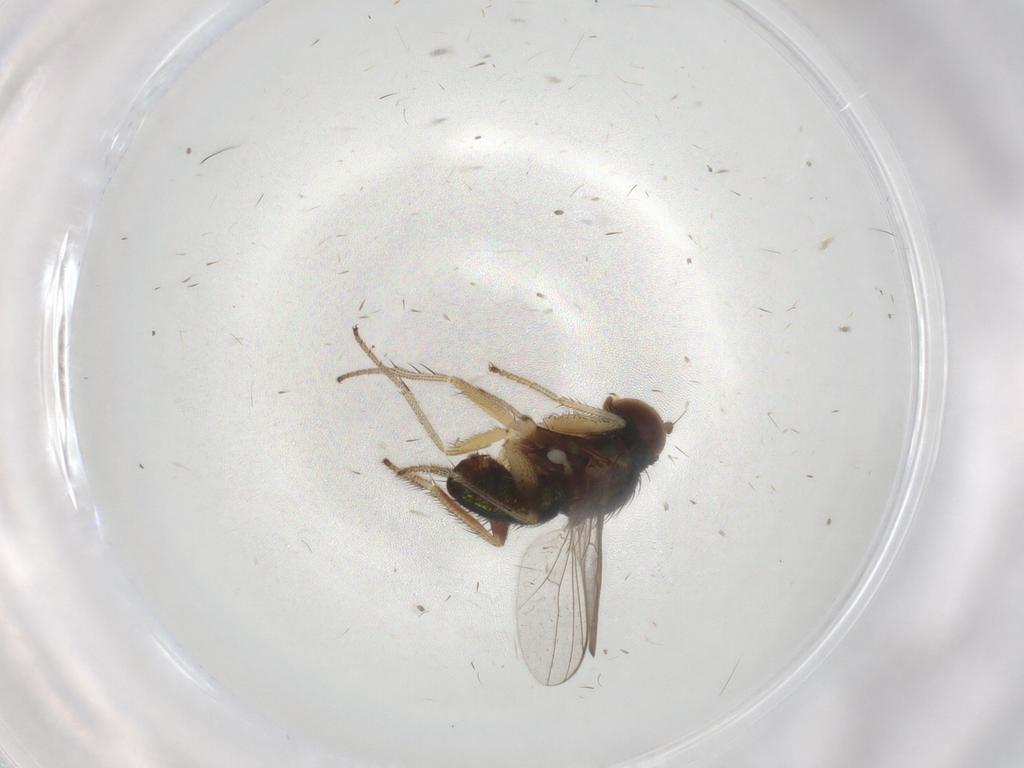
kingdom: Animalia
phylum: Arthropoda
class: Insecta
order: Diptera
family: Dolichopodidae
